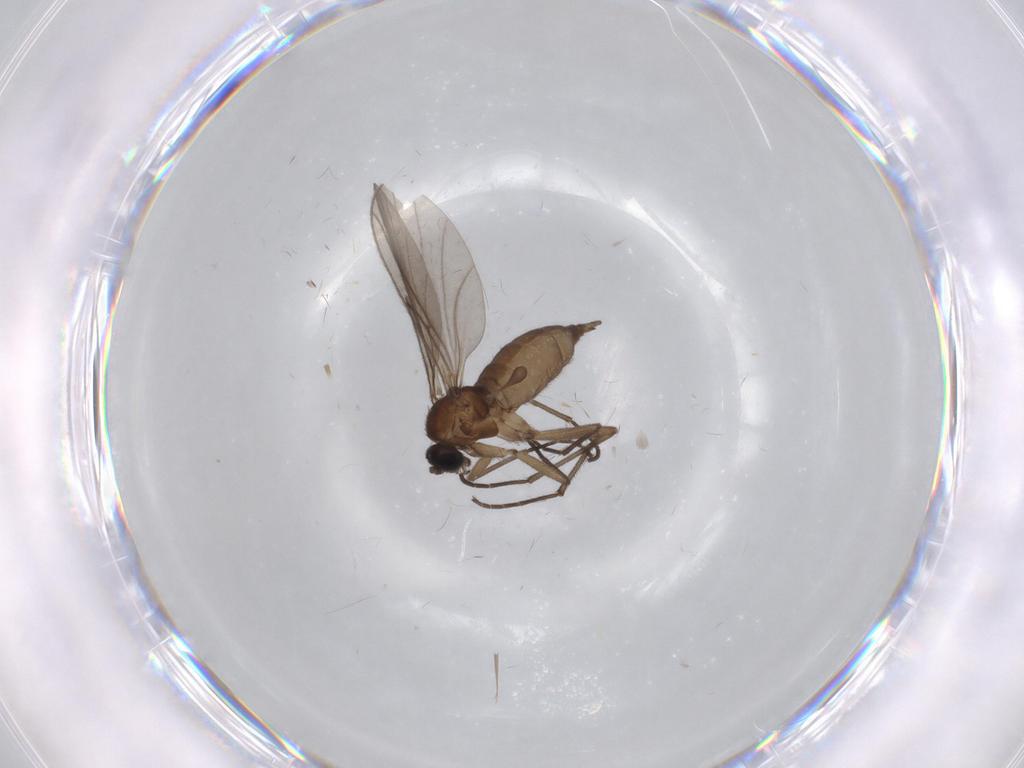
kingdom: Animalia
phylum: Arthropoda
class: Insecta
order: Diptera
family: Sciaridae
